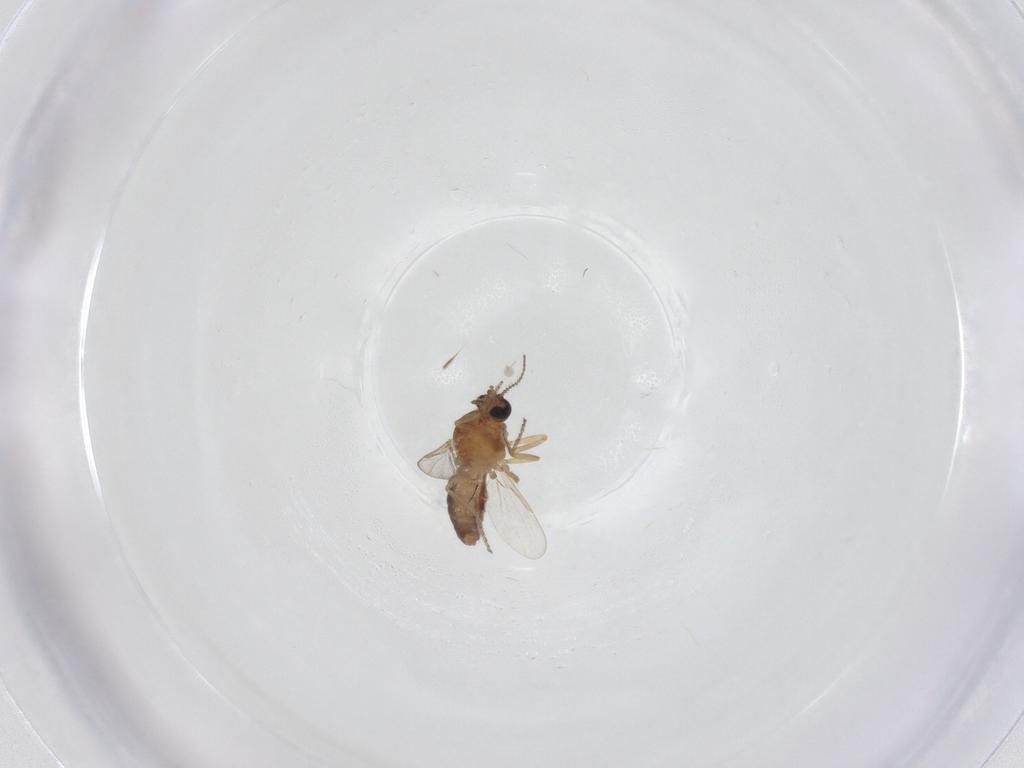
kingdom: Animalia
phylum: Arthropoda
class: Insecta
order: Diptera
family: Ceratopogonidae
